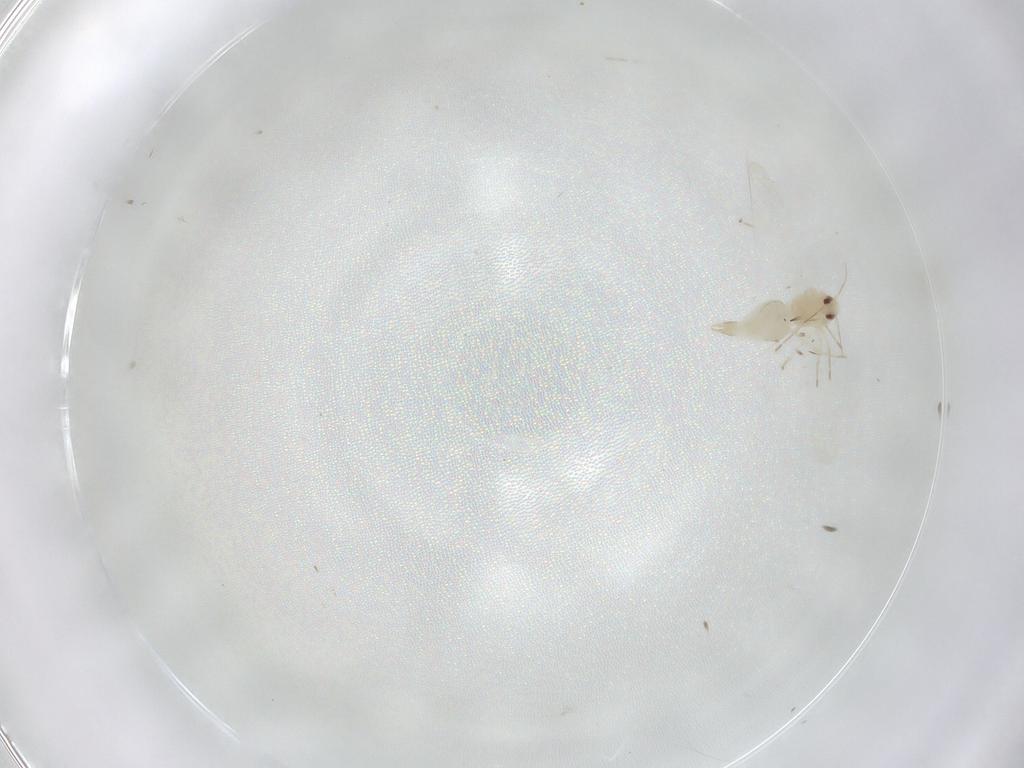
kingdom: Animalia
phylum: Arthropoda
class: Insecta
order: Hemiptera
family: Aleyrodidae
